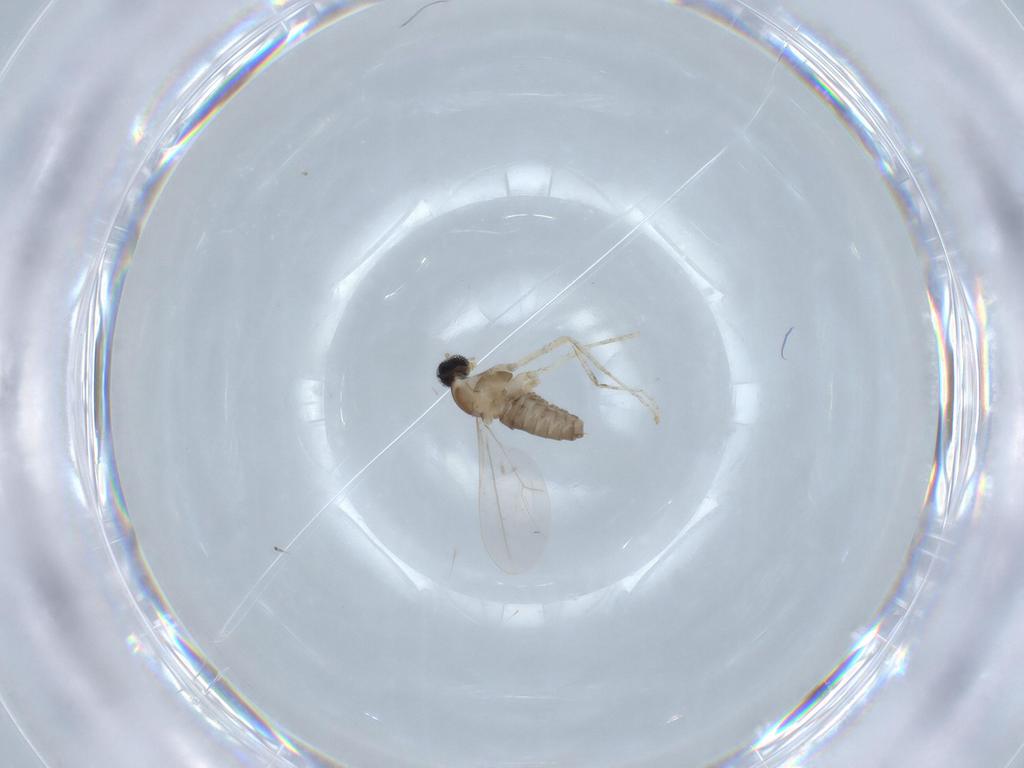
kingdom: Animalia
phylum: Arthropoda
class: Insecta
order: Diptera
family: Cecidomyiidae
